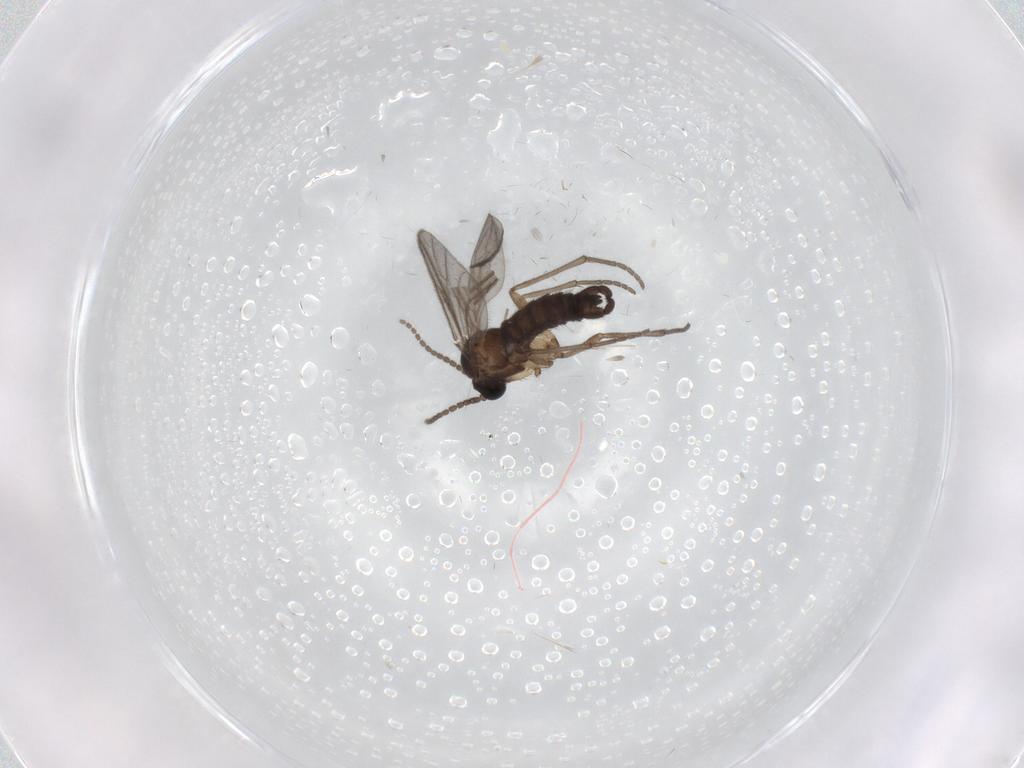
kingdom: Animalia
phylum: Arthropoda
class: Insecta
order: Diptera
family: Sciaridae
